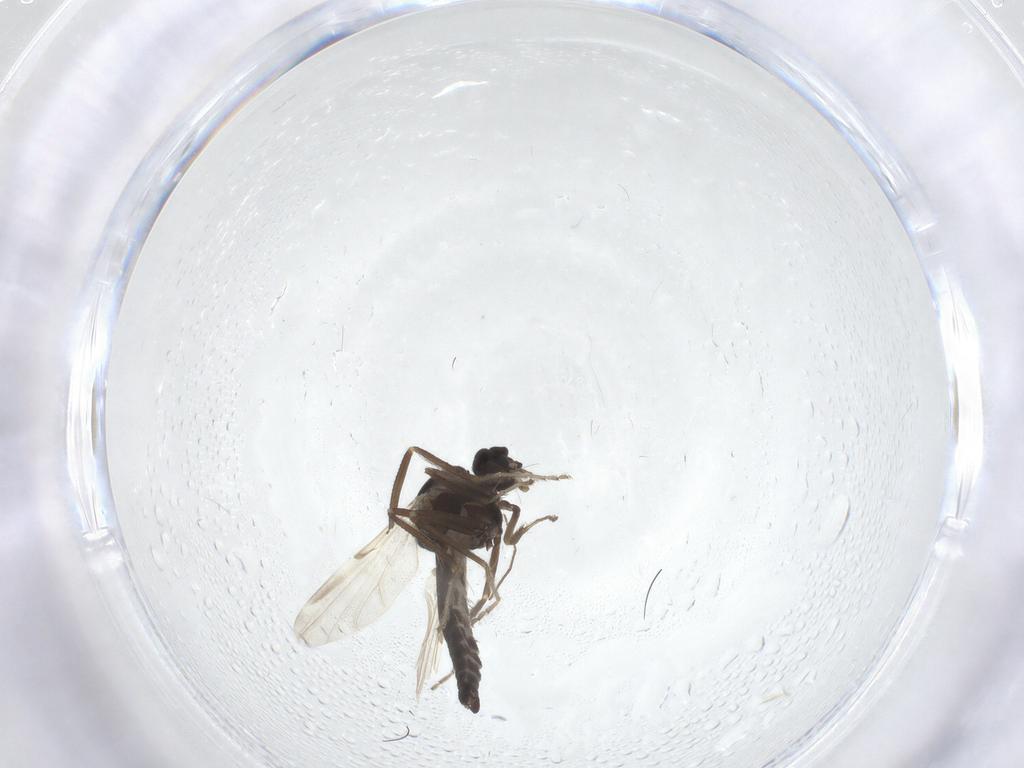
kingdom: Animalia
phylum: Arthropoda
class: Insecta
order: Diptera
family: Ceratopogonidae
